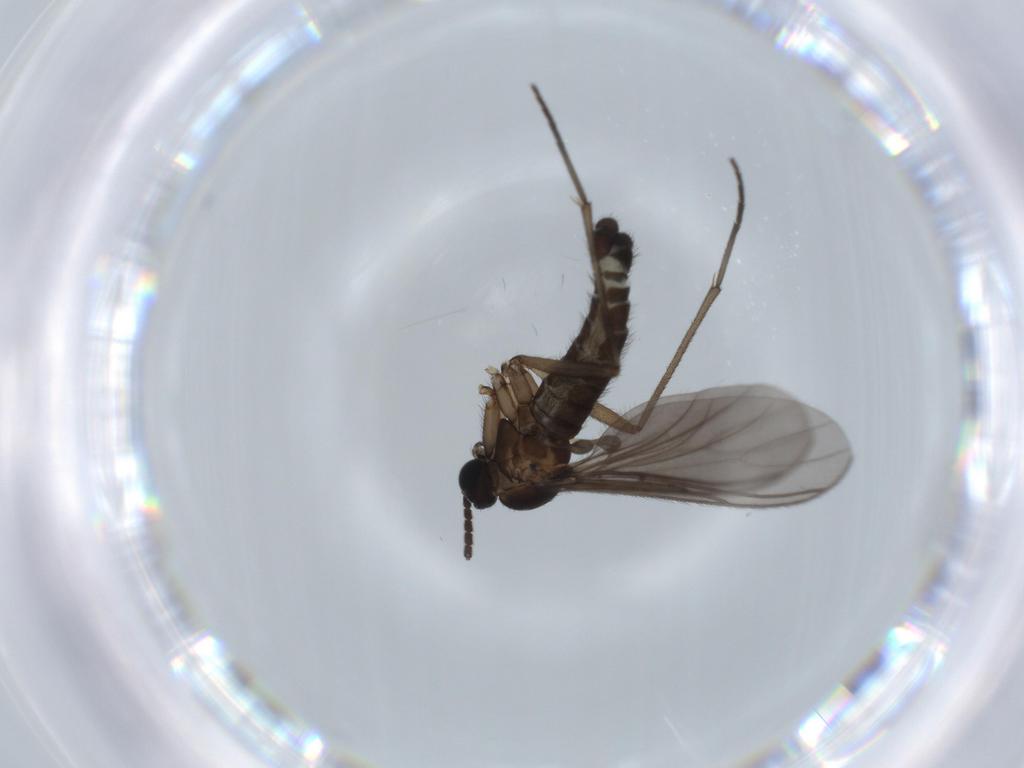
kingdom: Animalia
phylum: Arthropoda
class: Insecta
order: Diptera
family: Sciaridae
